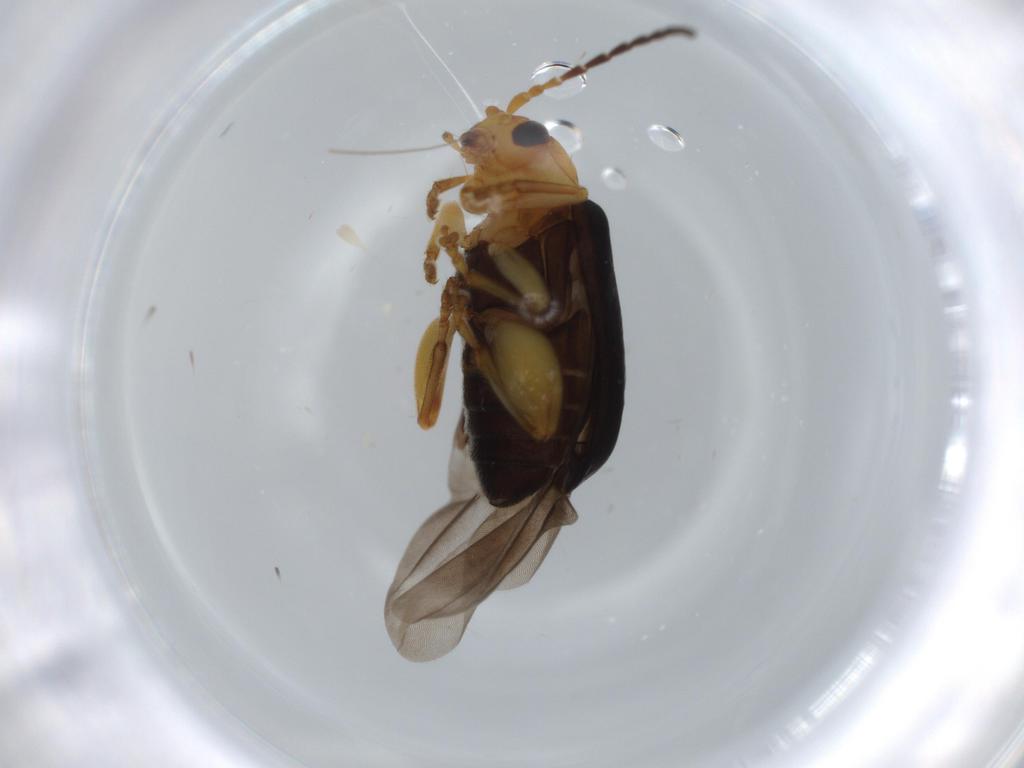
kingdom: Animalia
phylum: Arthropoda
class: Insecta
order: Coleoptera
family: Chrysomelidae
